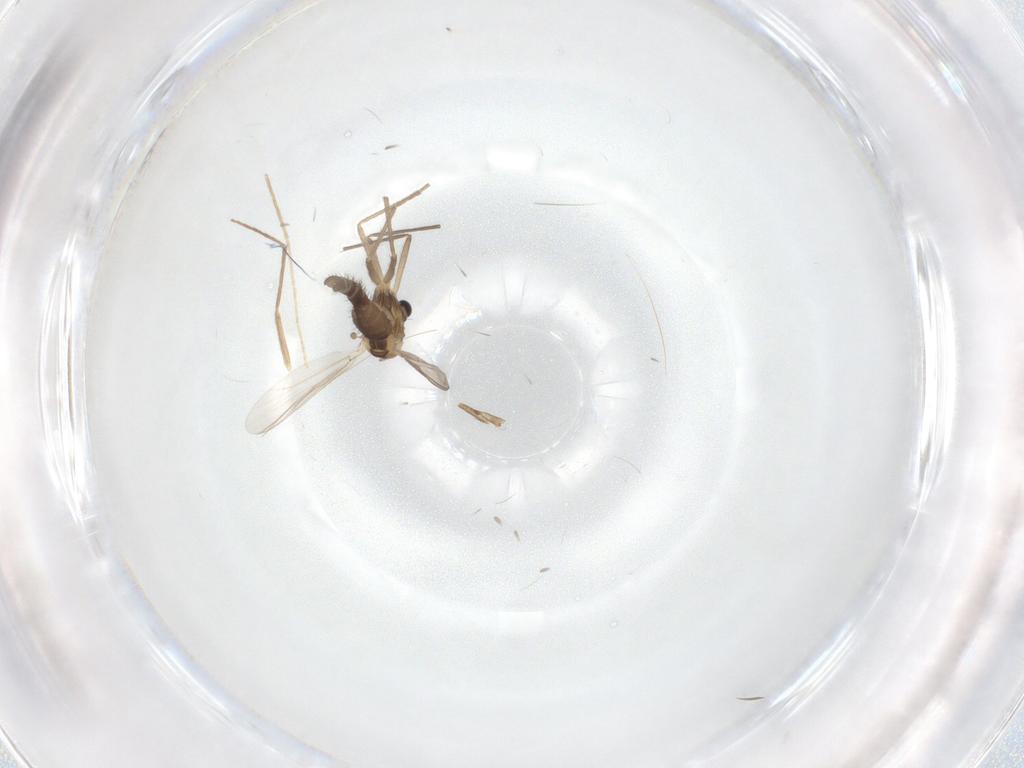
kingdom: Animalia
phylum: Arthropoda
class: Insecta
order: Diptera
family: Chironomidae
